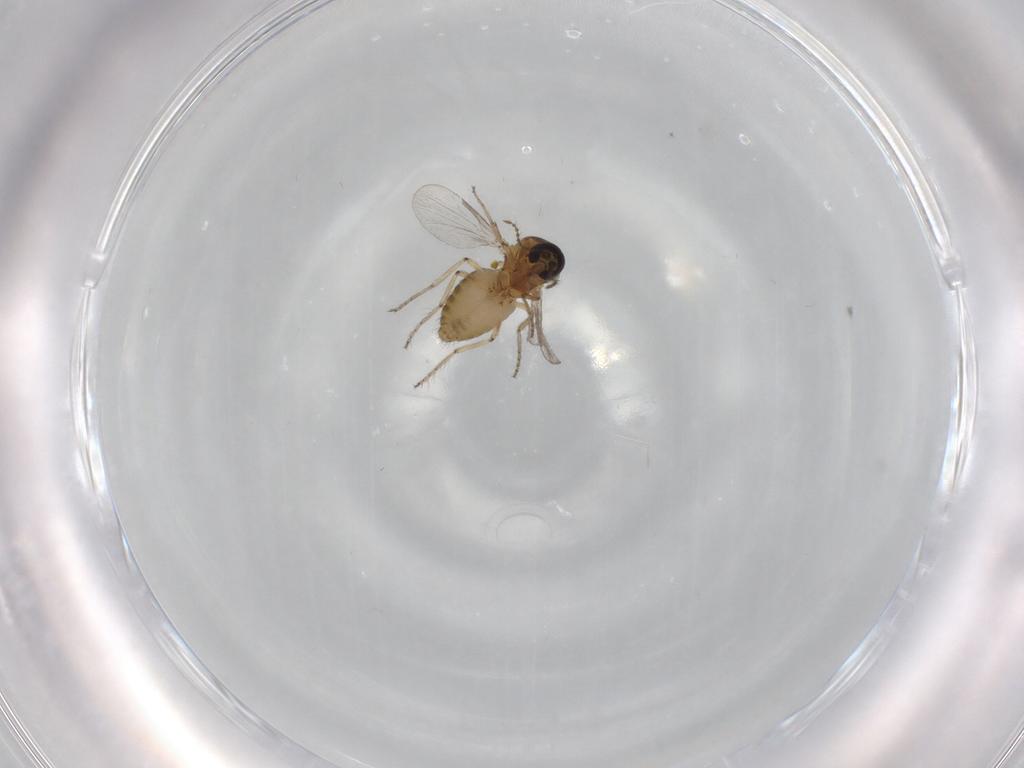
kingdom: Animalia
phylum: Arthropoda
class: Insecta
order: Diptera
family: Ceratopogonidae
